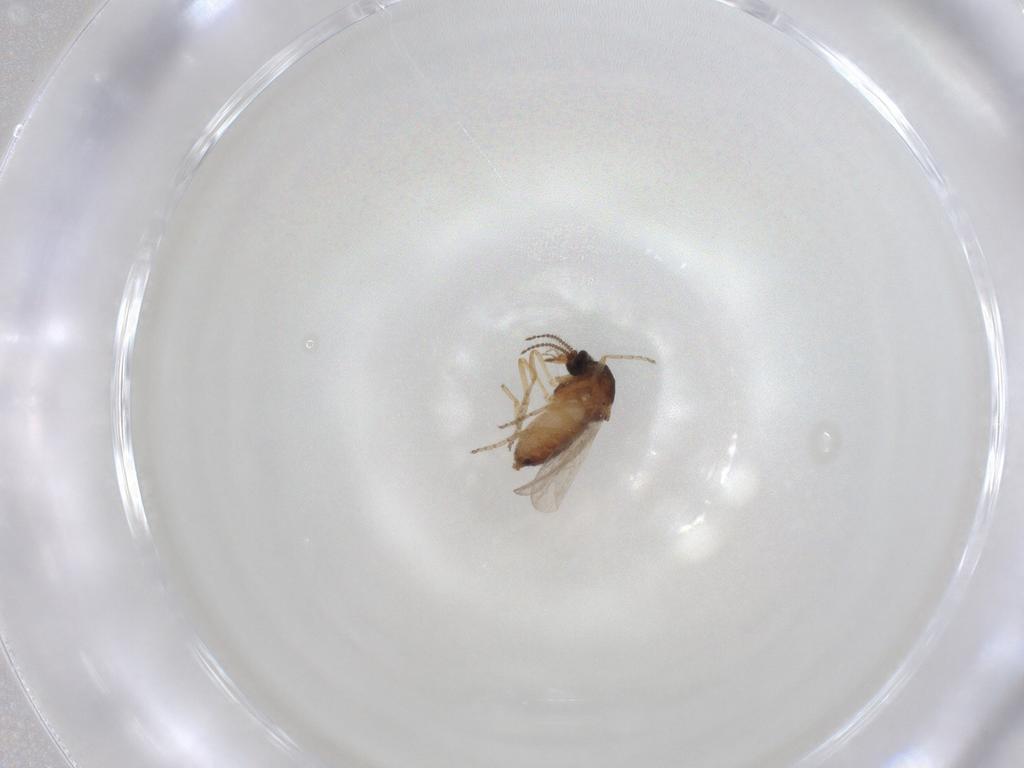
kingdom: Animalia
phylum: Arthropoda
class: Insecta
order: Diptera
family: Ceratopogonidae
